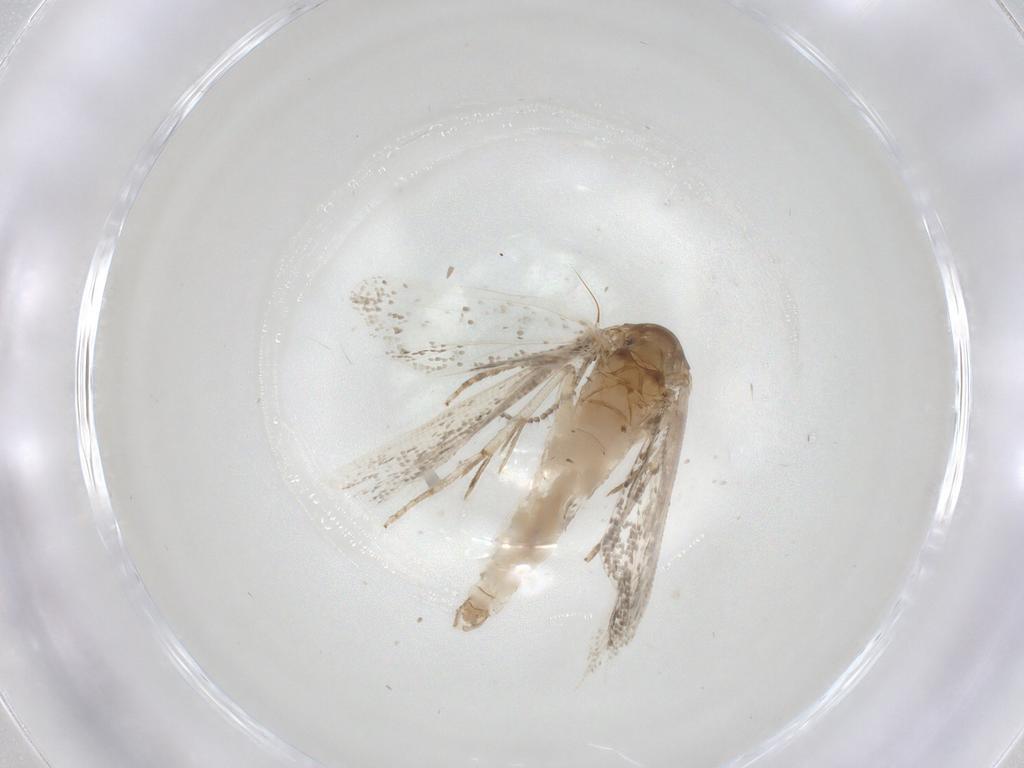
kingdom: Animalia
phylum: Arthropoda
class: Insecta
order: Lepidoptera
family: Tortricidae
